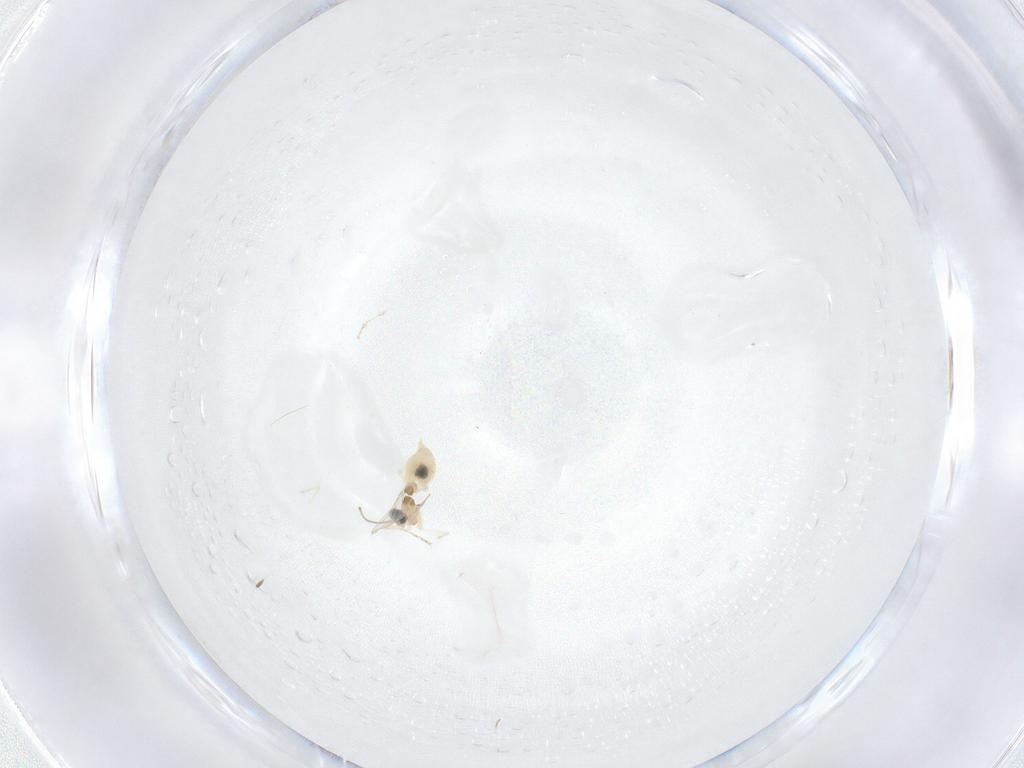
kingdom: Animalia
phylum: Arthropoda
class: Insecta
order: Diptera
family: Cecidomyiidae
